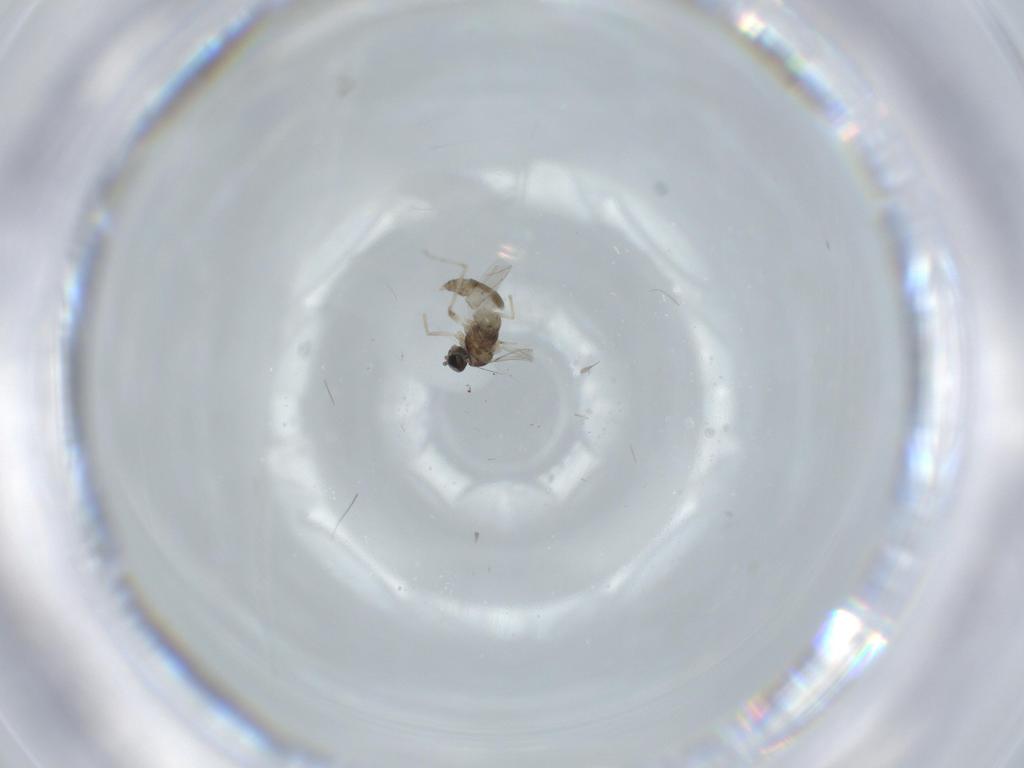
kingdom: Animalia
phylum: Arthropoda
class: Insecta
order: Diptera
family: Cecidomyiidae
